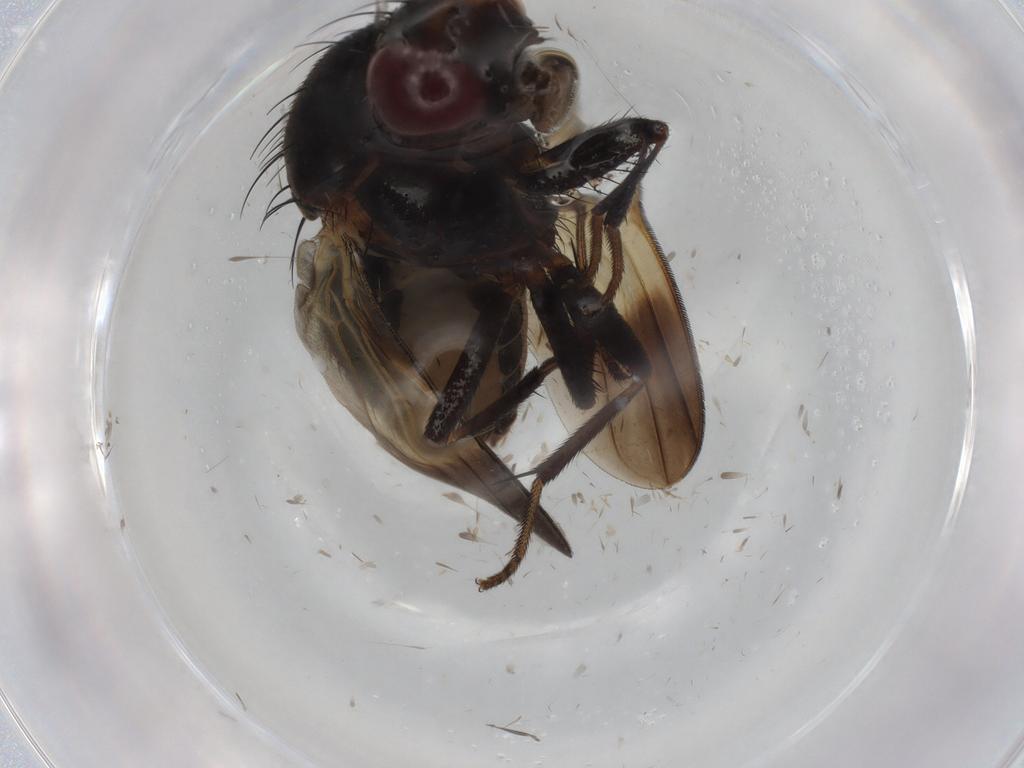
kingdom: Animalia
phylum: Arthropoda
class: Insecta
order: Diptera
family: Lauxaniidae
